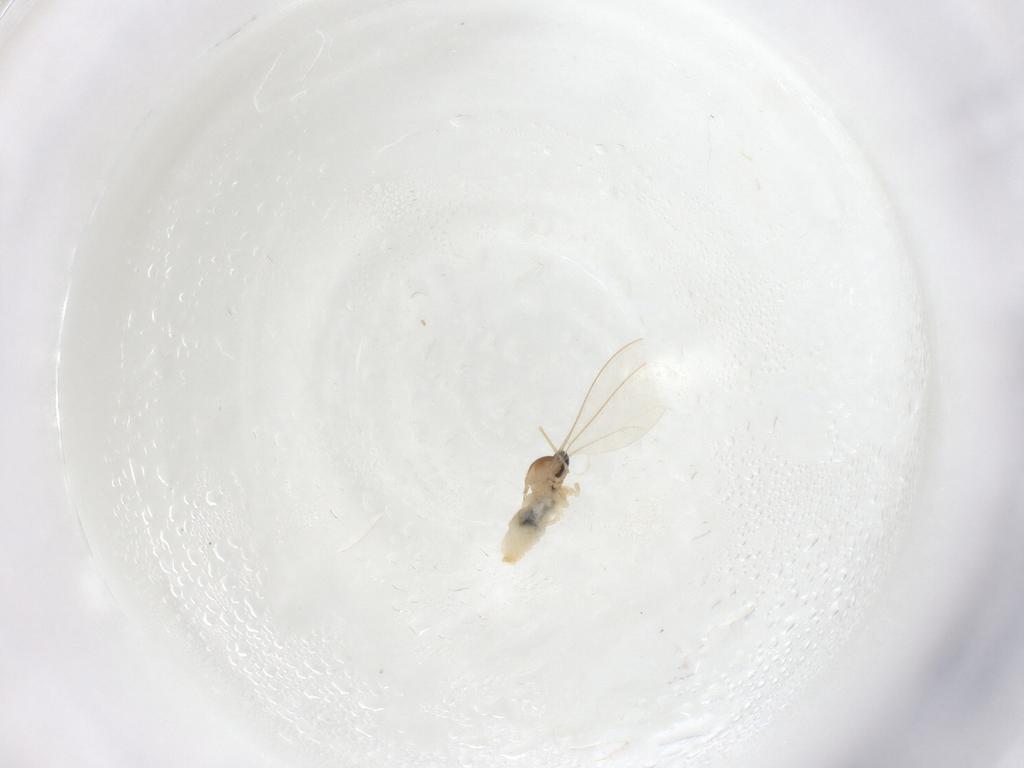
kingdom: Animalia
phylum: Arthropoda
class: Insecta
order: Diptera
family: Cecidomyiidae
